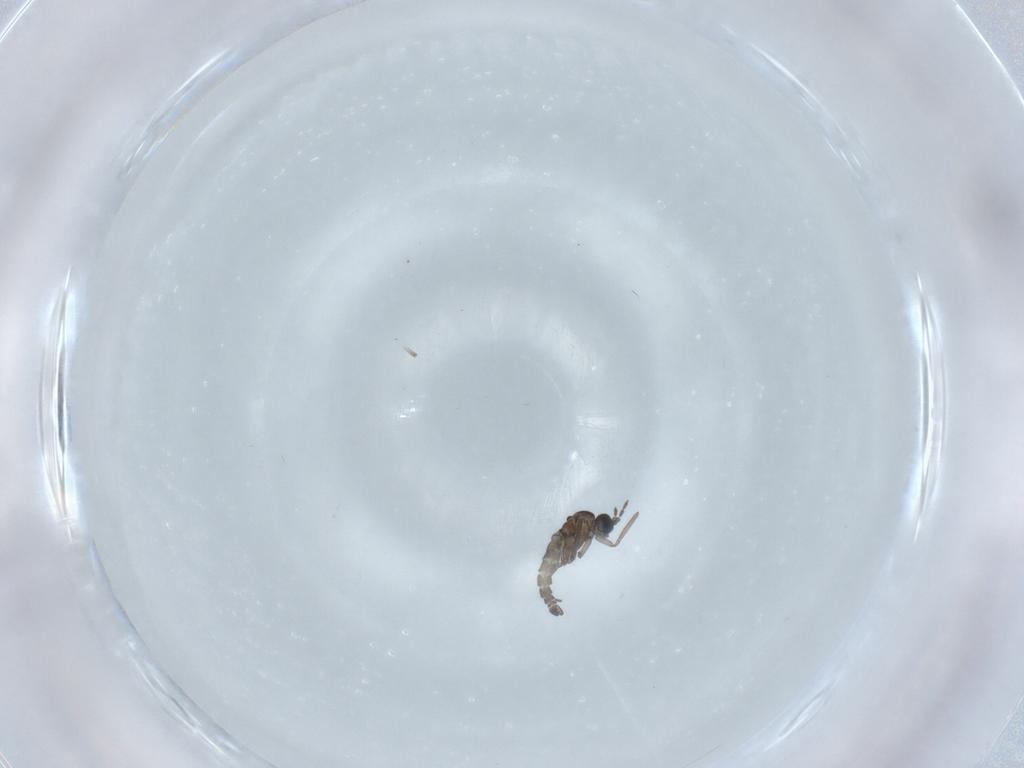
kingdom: Animalia
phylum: Arthropoda
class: Insecta
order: Diptera
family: Sciaridae
